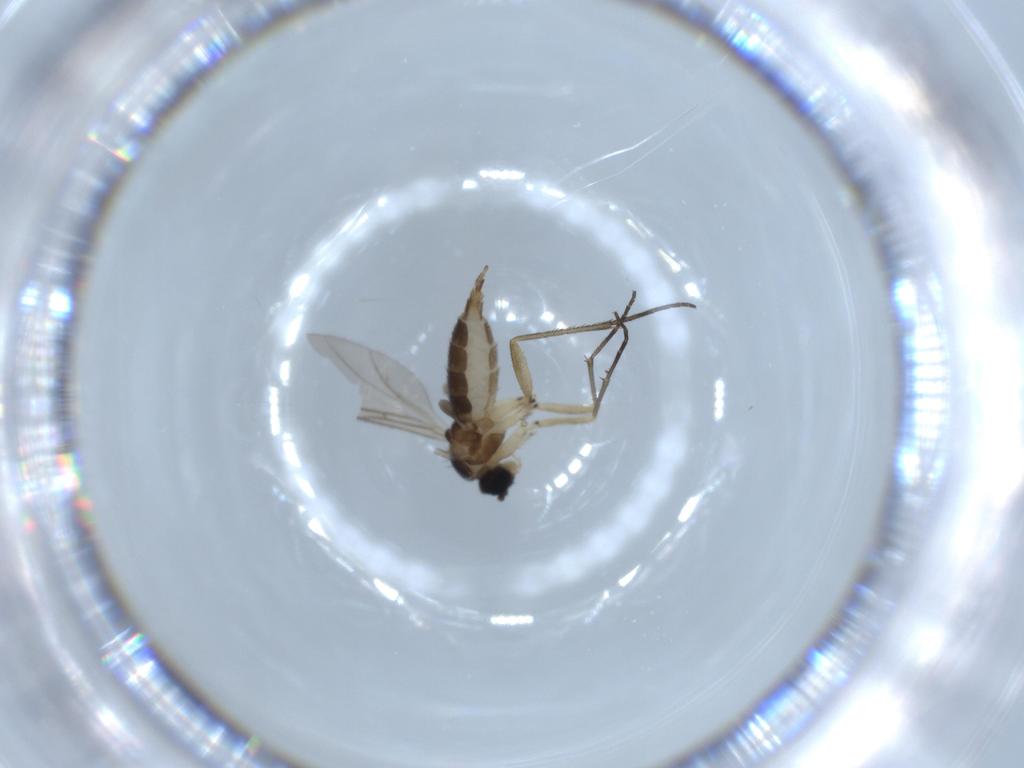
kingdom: Animalia
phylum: Arthropoda
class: Insecta
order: Diptera
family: Sciaridae
